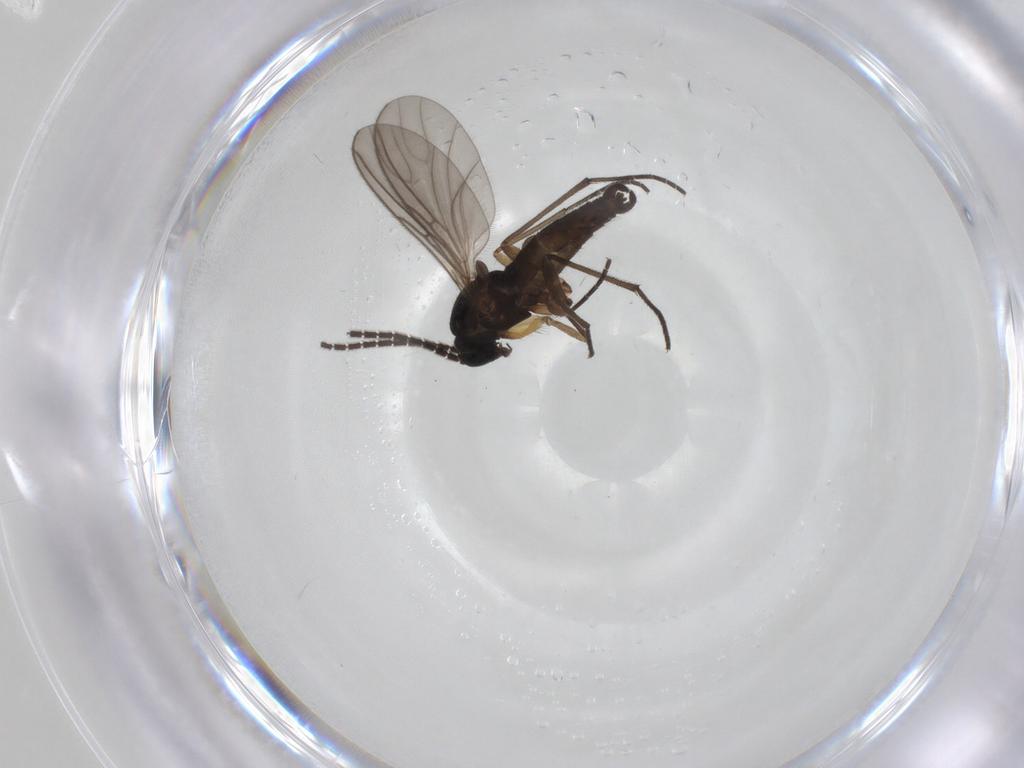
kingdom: Animalia
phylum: Arthropoda
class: Insecta
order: Diptera
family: Sciaridae
